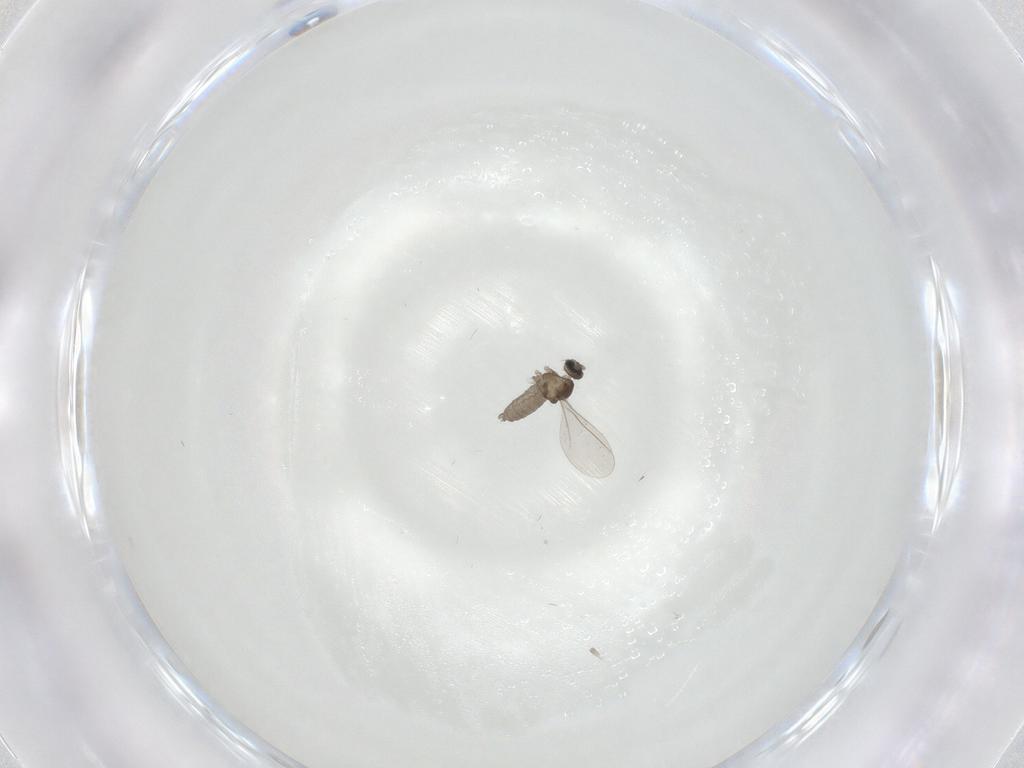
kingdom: Animalia
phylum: Arthropoda
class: Insecta
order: Diptera
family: Cecidomyiidae
